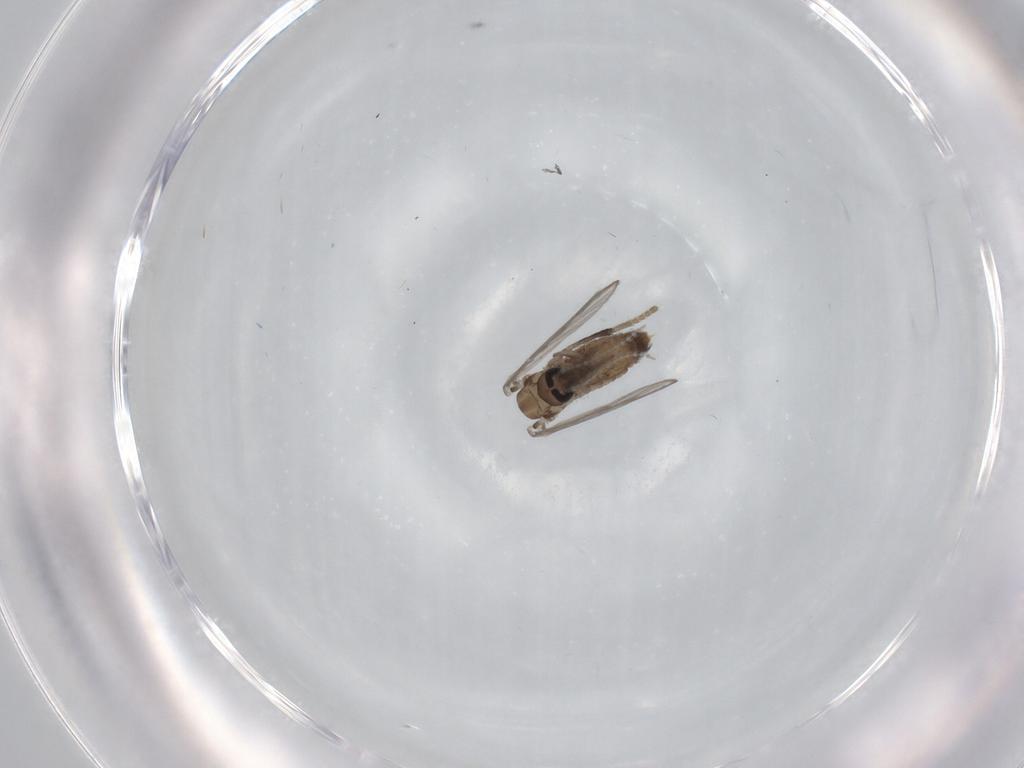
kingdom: Animalia
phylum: Arthropoda
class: Insecta
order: Diptera
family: Psychodidae
